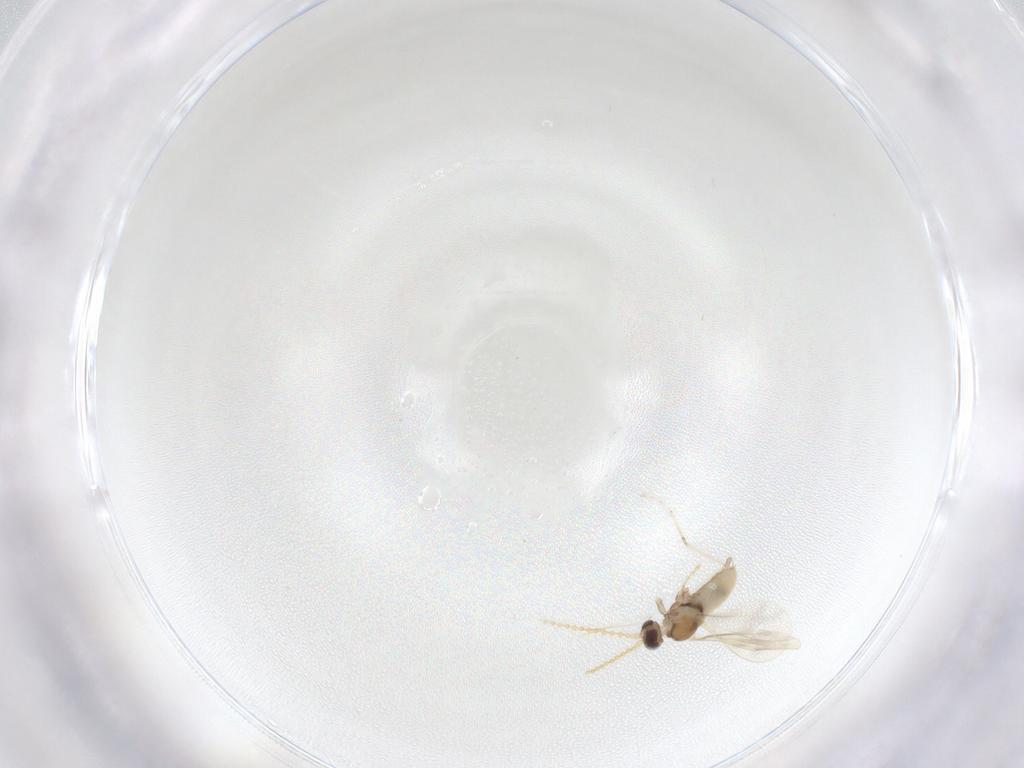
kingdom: Animalia
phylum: Arthropoda
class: Insecta
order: Diptera
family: Cecidomyiidae
